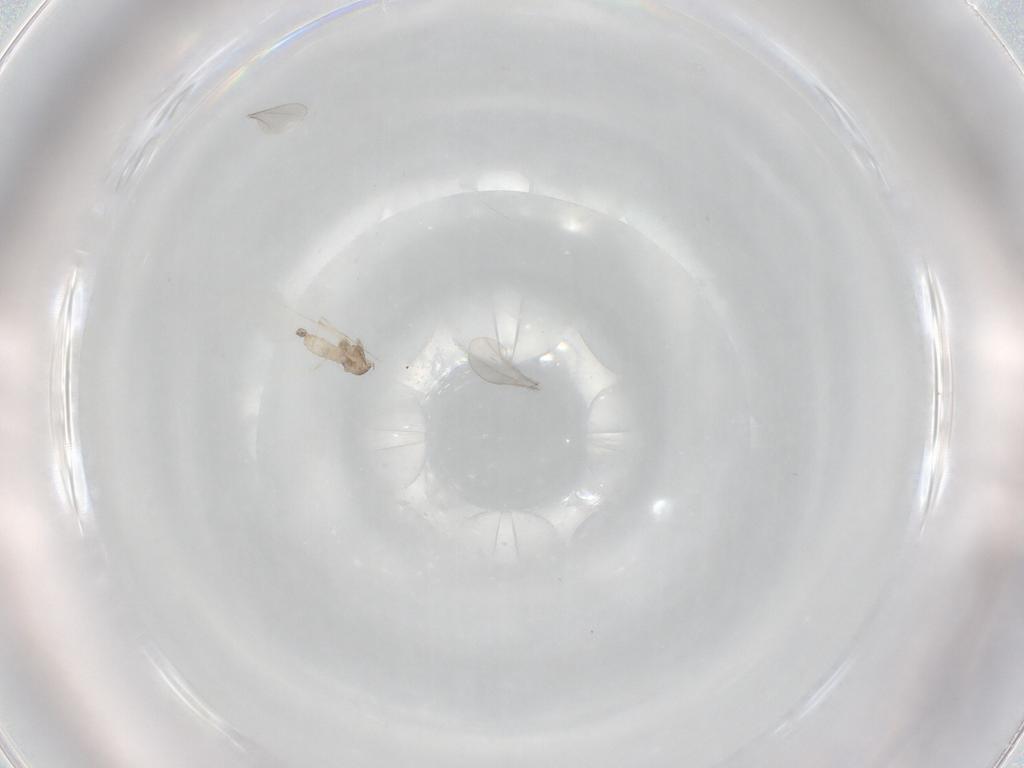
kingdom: Animalia
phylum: Arthropoda
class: Insecta
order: Diptera
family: Cecidomyiidae
